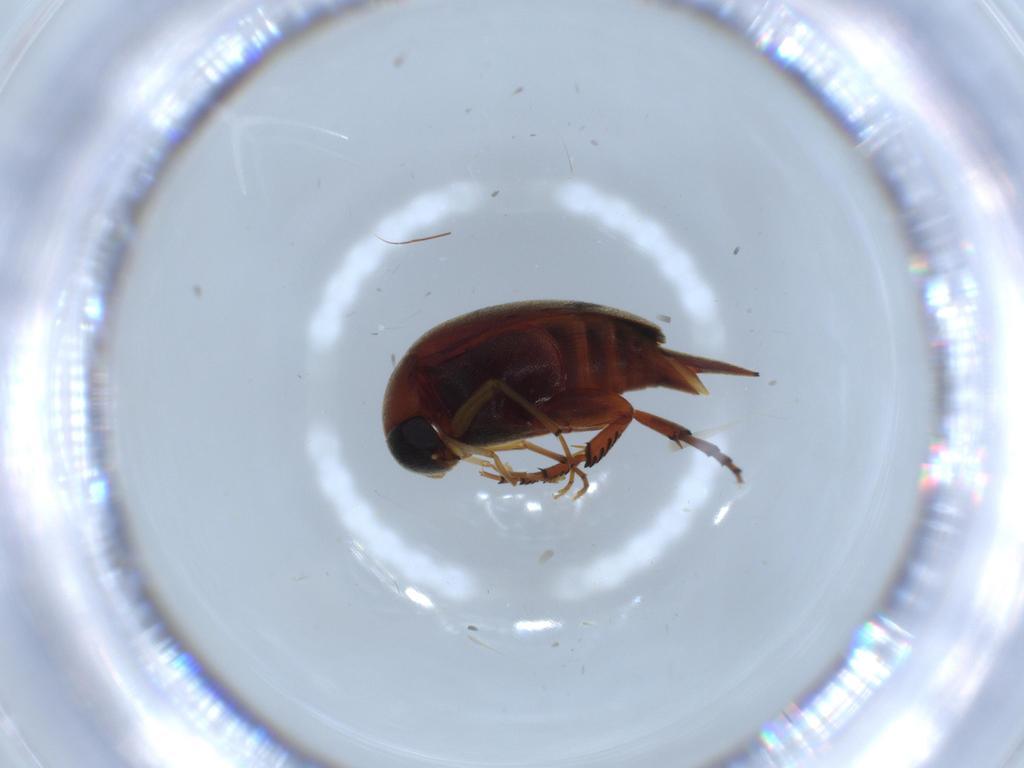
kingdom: Animalia
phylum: Arthropoda
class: Insecta
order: Coleoptera
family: Mordellidae
